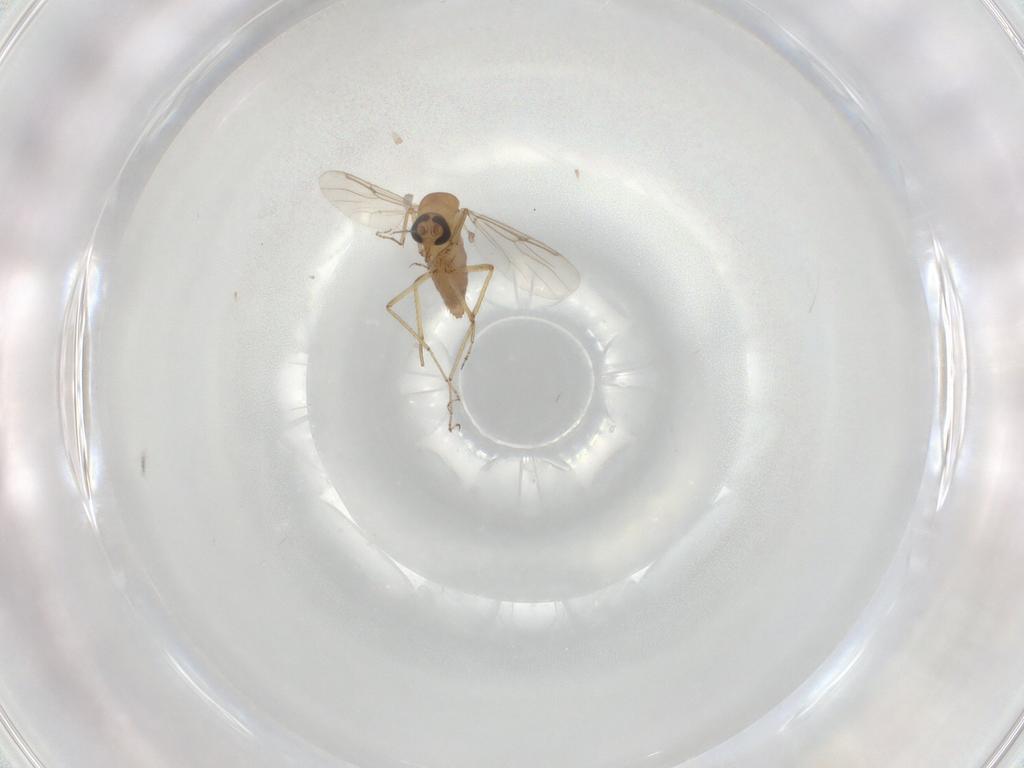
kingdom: Animalia
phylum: Arthropoda
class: Insecta
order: Diptera
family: Ceratopogonidae
